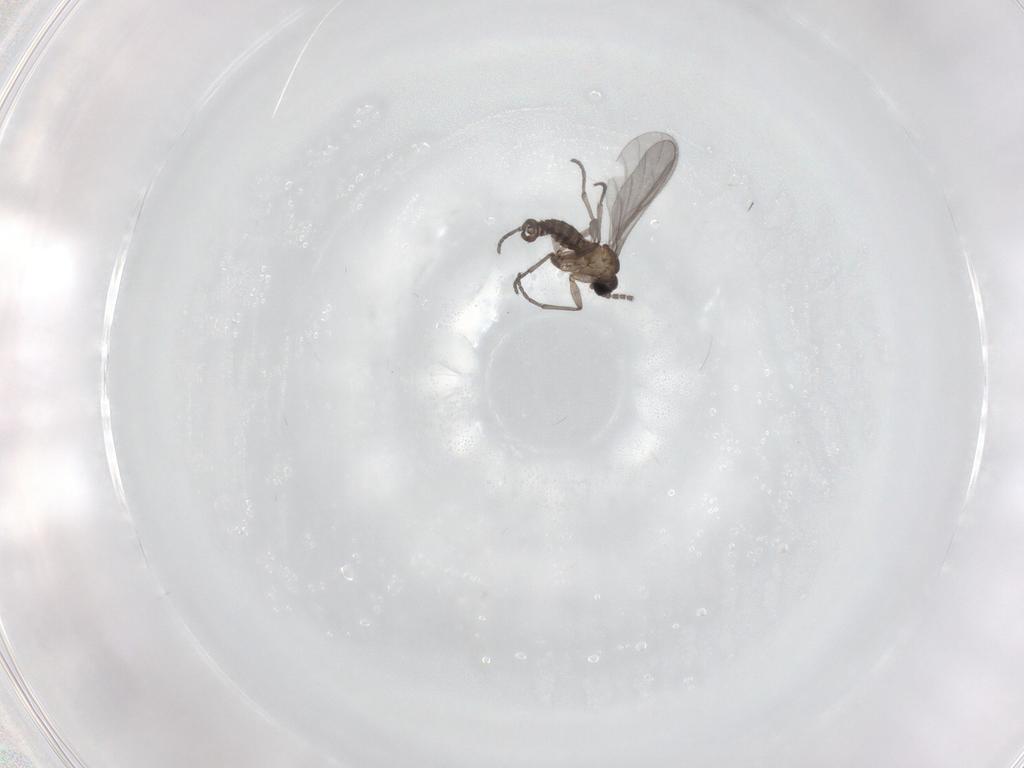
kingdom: Animalia
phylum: Arthropoda
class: Insecta
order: Diptera
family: Sciaridae
